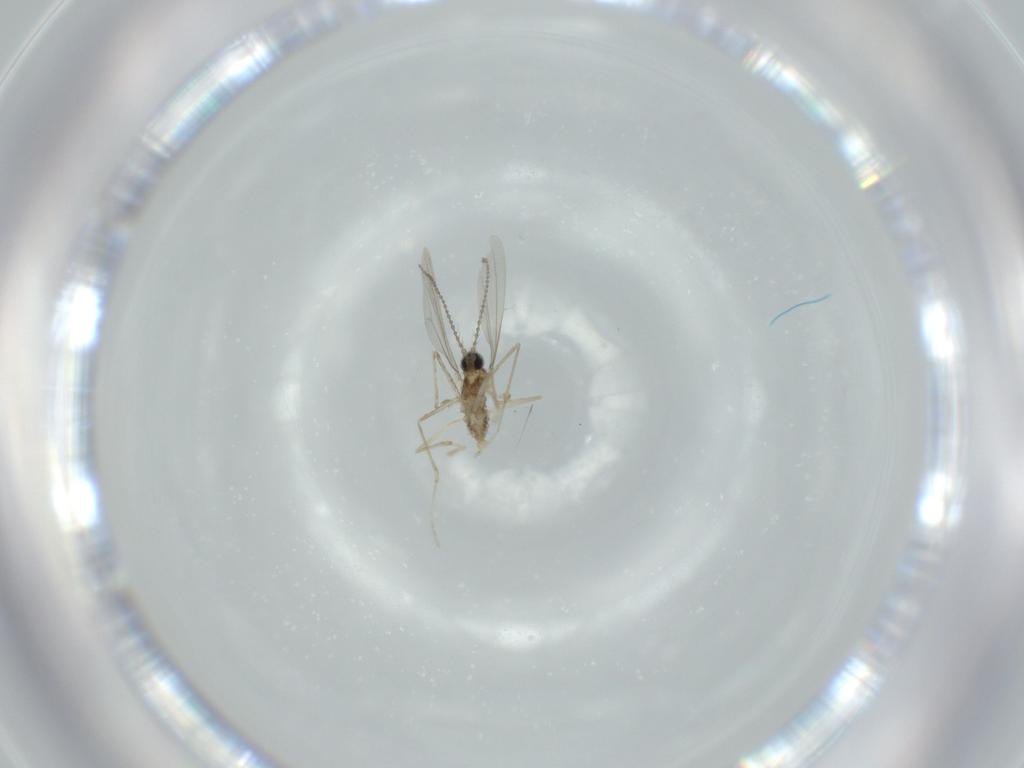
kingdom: Animalia
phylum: Arthropoda
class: Insecta
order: Diptera
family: Syrphidae
